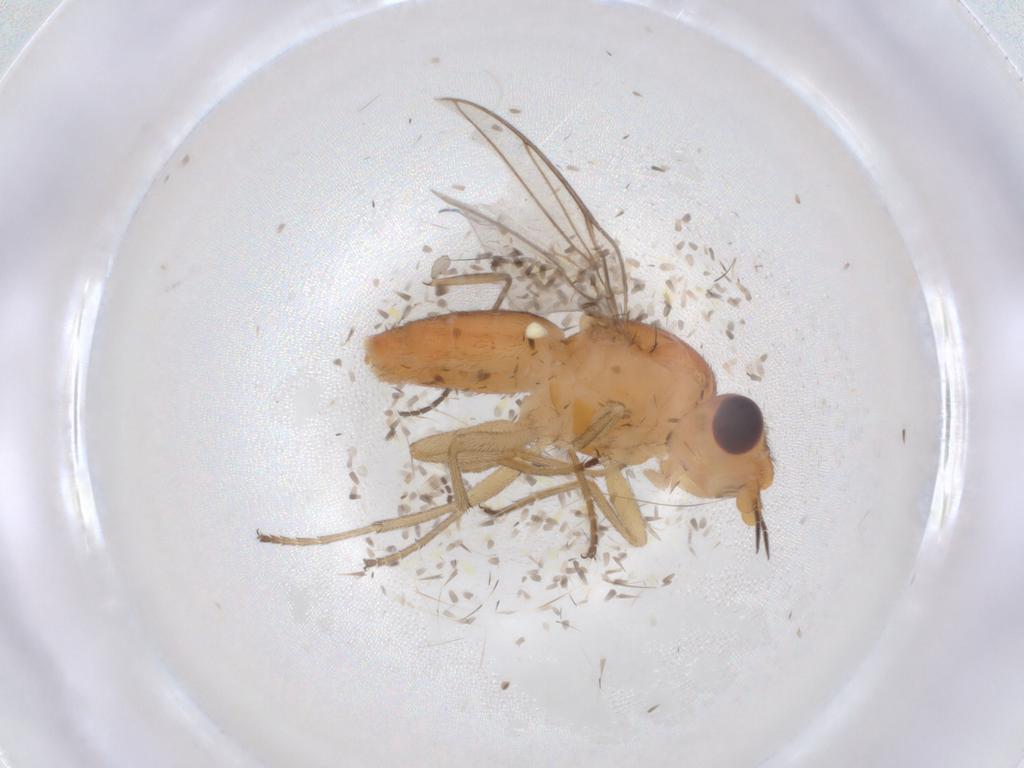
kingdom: Animalia
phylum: Arthropoda
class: Insecta
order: Diptera
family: Chloropidae
